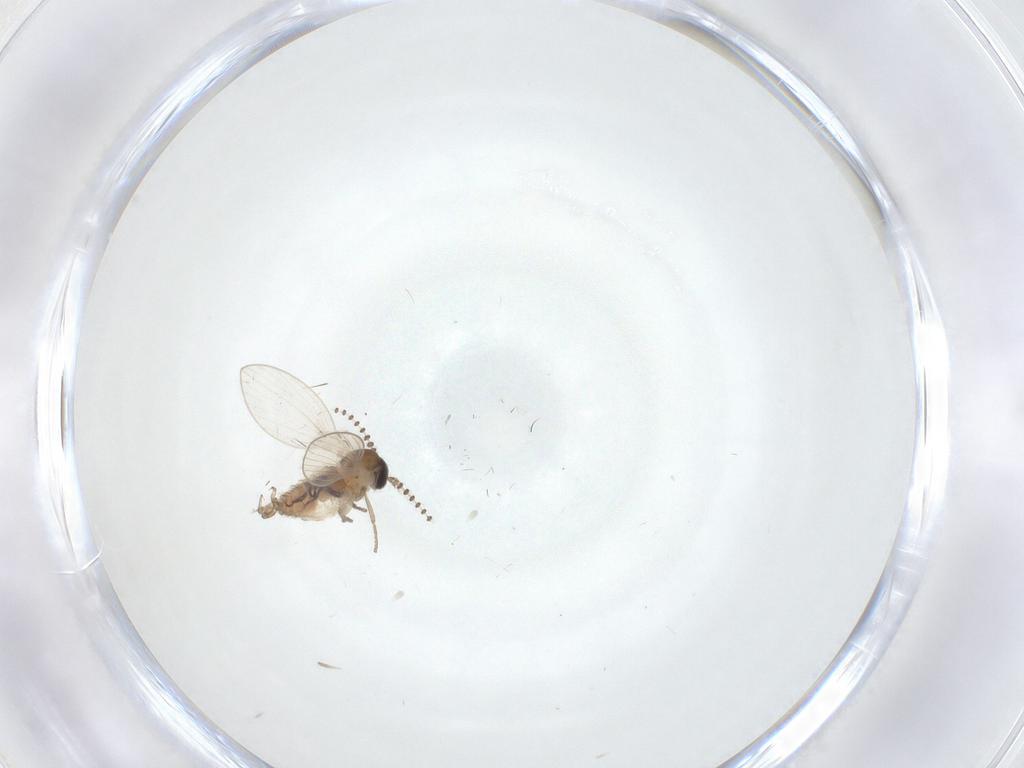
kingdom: Animalia
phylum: Arthropoda
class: Insecta
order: Diptera
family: Psychodidae
